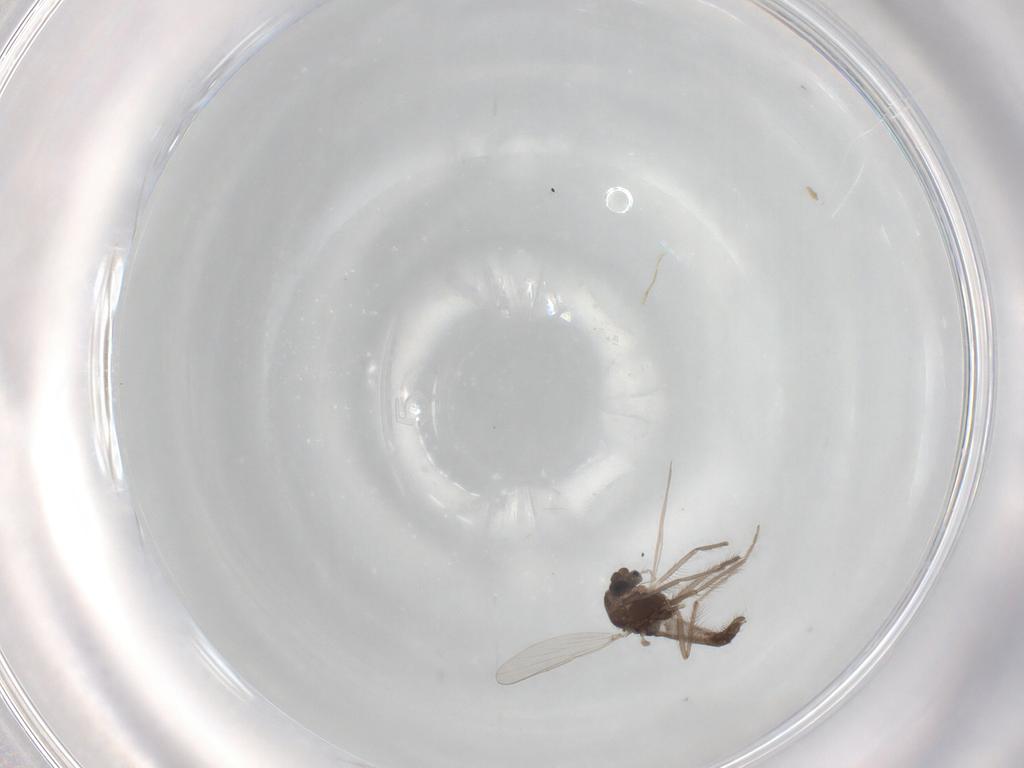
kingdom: Animalia
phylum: Arthropoda
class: Insecta
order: Diptera
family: Chironomidae
